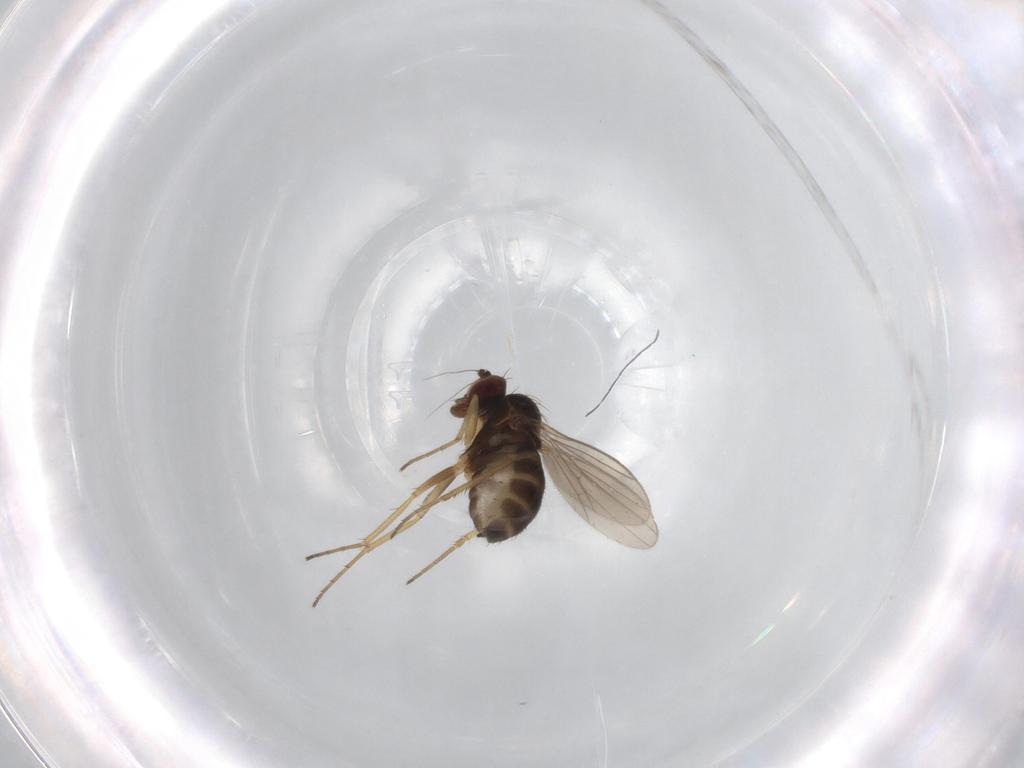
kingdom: Animalia
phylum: Arthropoda
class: Insecta
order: Diptera
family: Dolichopodidae
